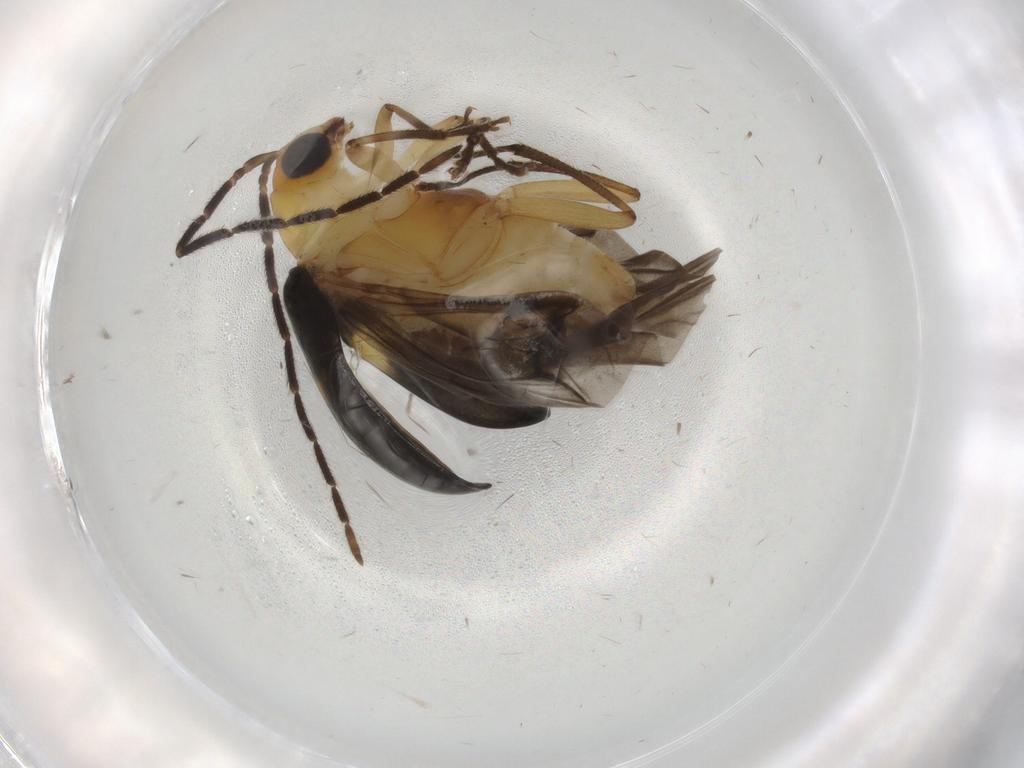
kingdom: Animalia
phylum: Arthropoda
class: Insecta
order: Coleoptera
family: Chrysomelidae
